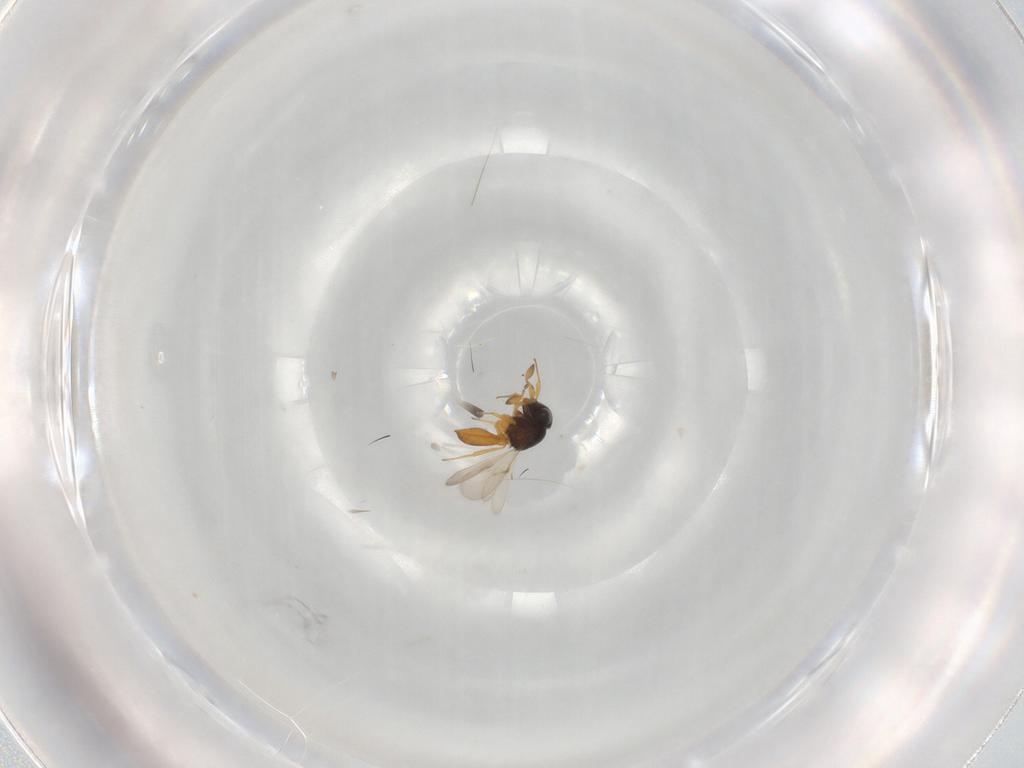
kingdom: Animalia
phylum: Arthropoda
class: Insecta
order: Hymenoptera
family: Scelionidae
